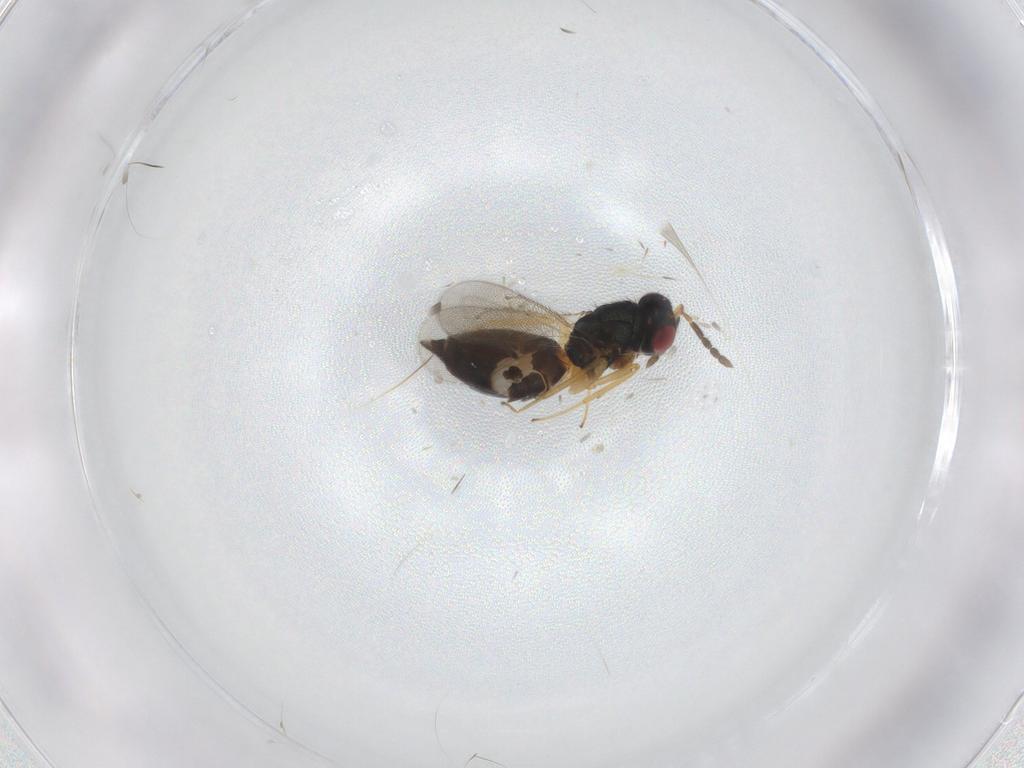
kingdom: Animalia
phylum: Arthropoda
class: Insecta
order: Hymenoptera
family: Eulophidae
